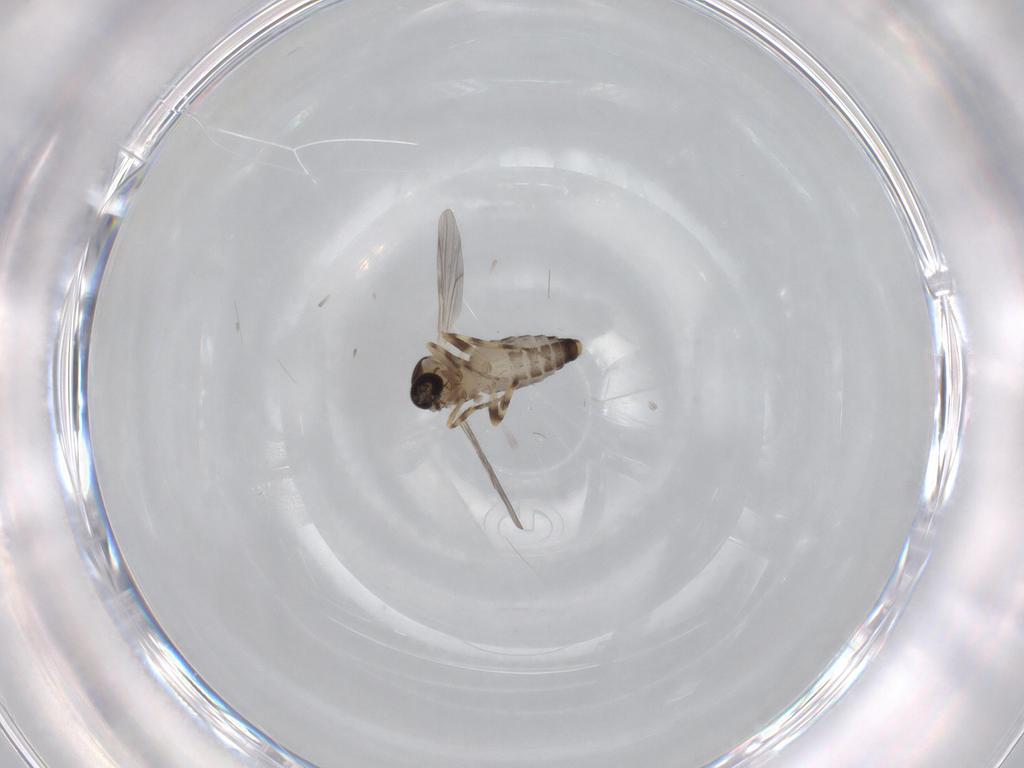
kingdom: Animalia
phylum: Arthropoda
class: Insecta
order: Diptera
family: Ceratopogonidae
